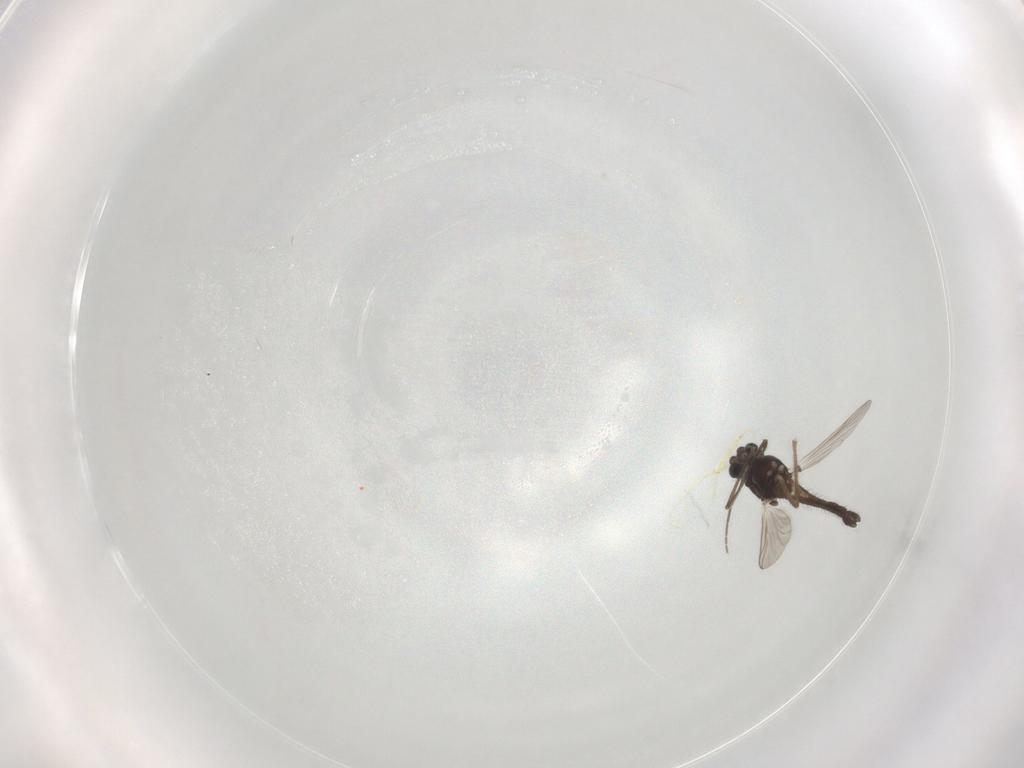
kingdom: Animalia
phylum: Arthropoda
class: Insecta
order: Diptera
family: Chironomidae
